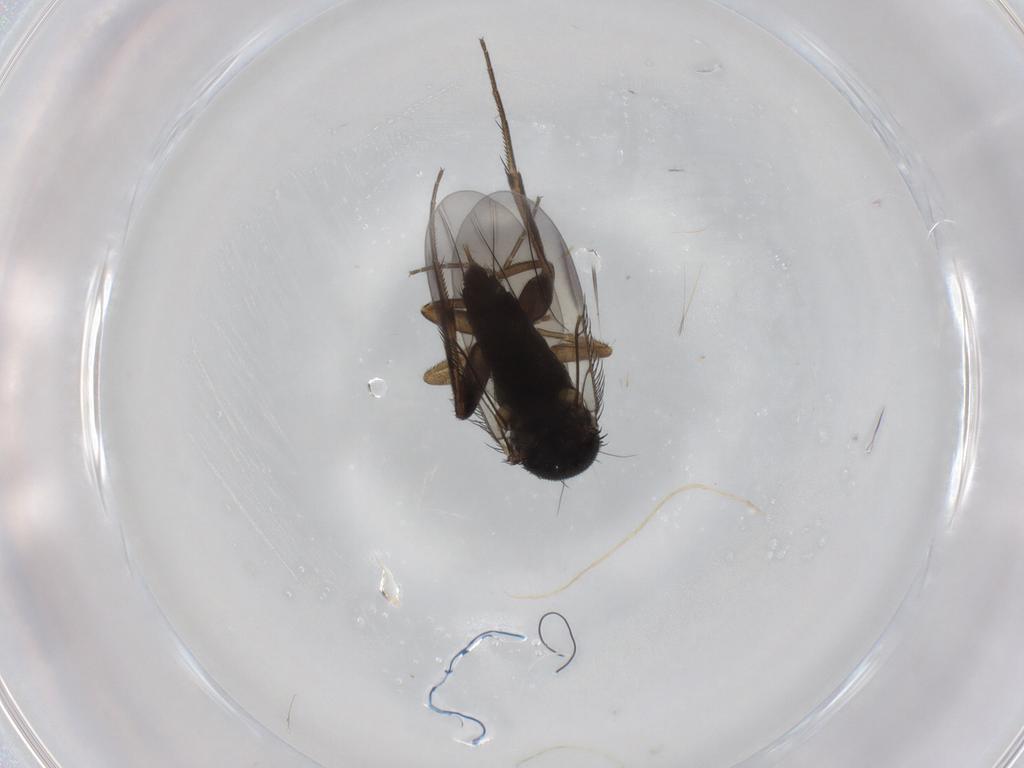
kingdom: Animalia
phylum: Arthropoda
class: Insecta
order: Diptera
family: Phoridae
